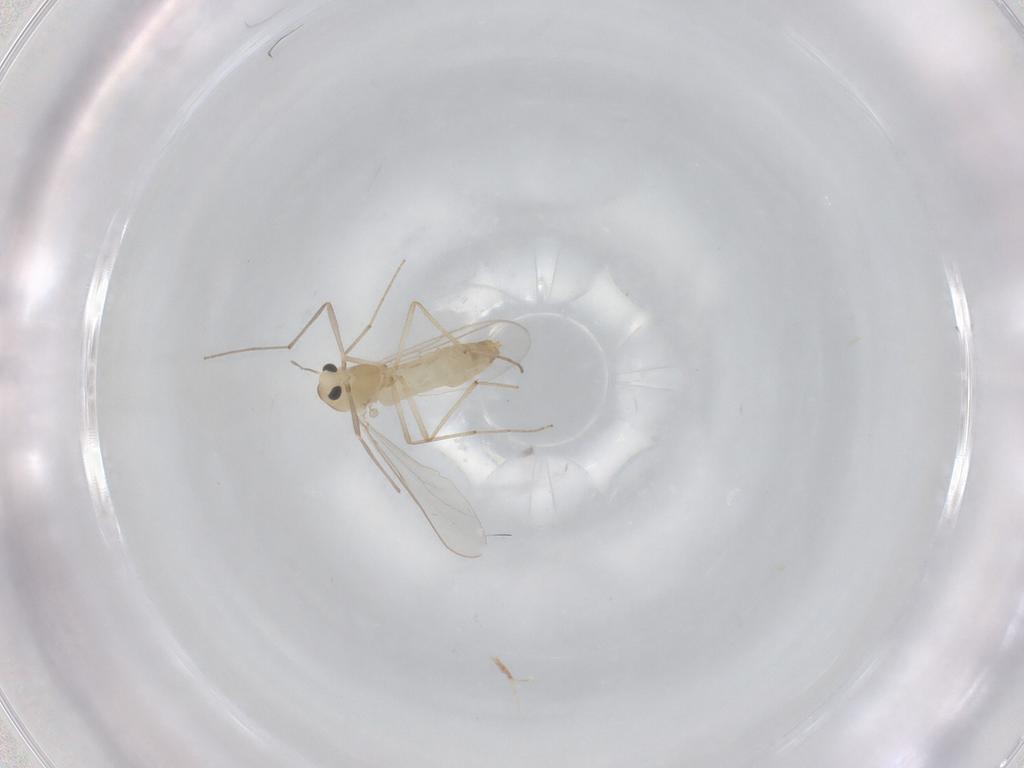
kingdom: Animalia
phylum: Arthropoda
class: Insecta
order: Diptera
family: Chironomidae
